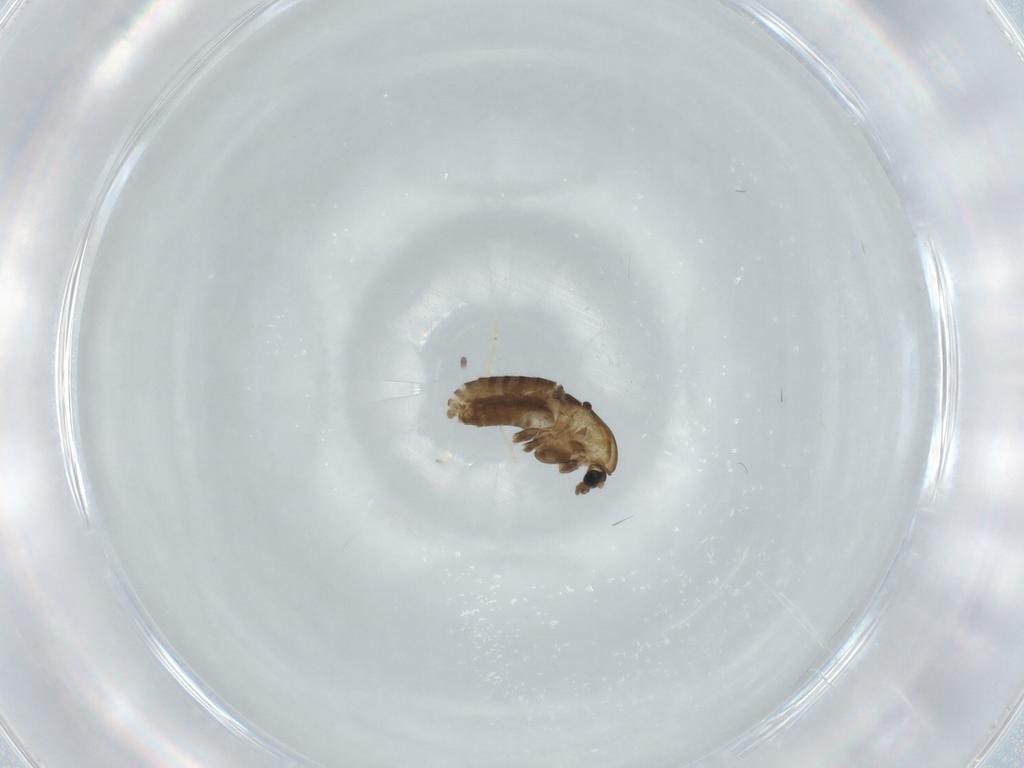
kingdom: Animalia
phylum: Arthropoda
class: Insecta
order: Diptera
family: Chironomidae
